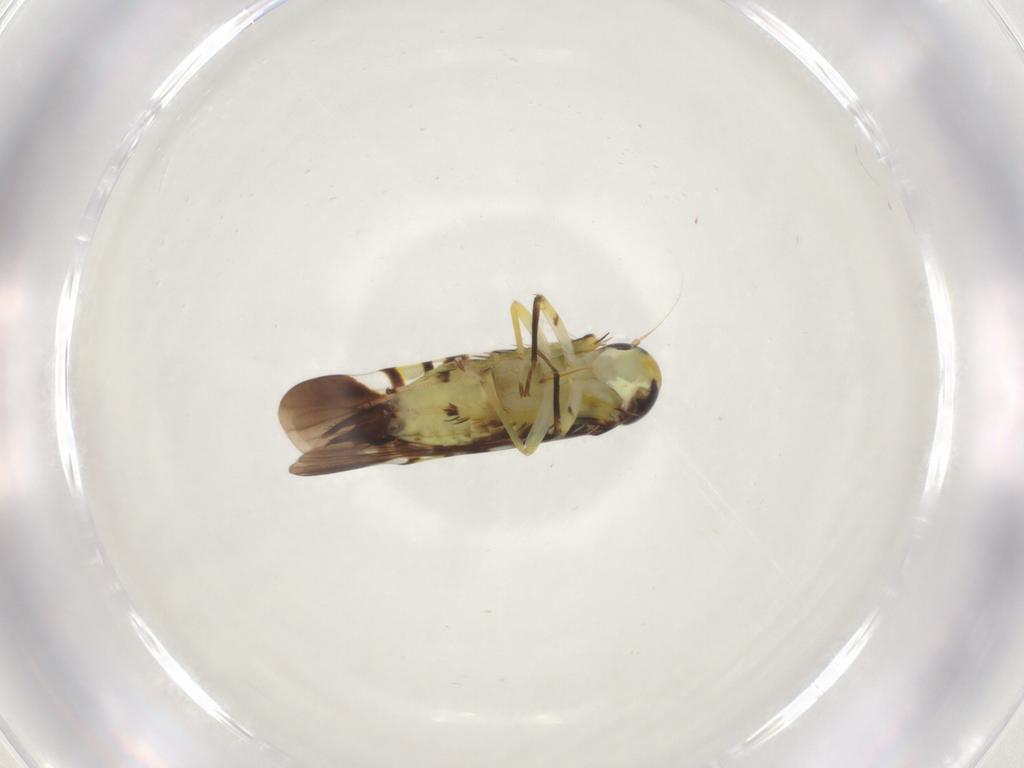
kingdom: Animalia
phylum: Arthropoda
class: Insecta
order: Hemiptera
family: Cicadellidae
